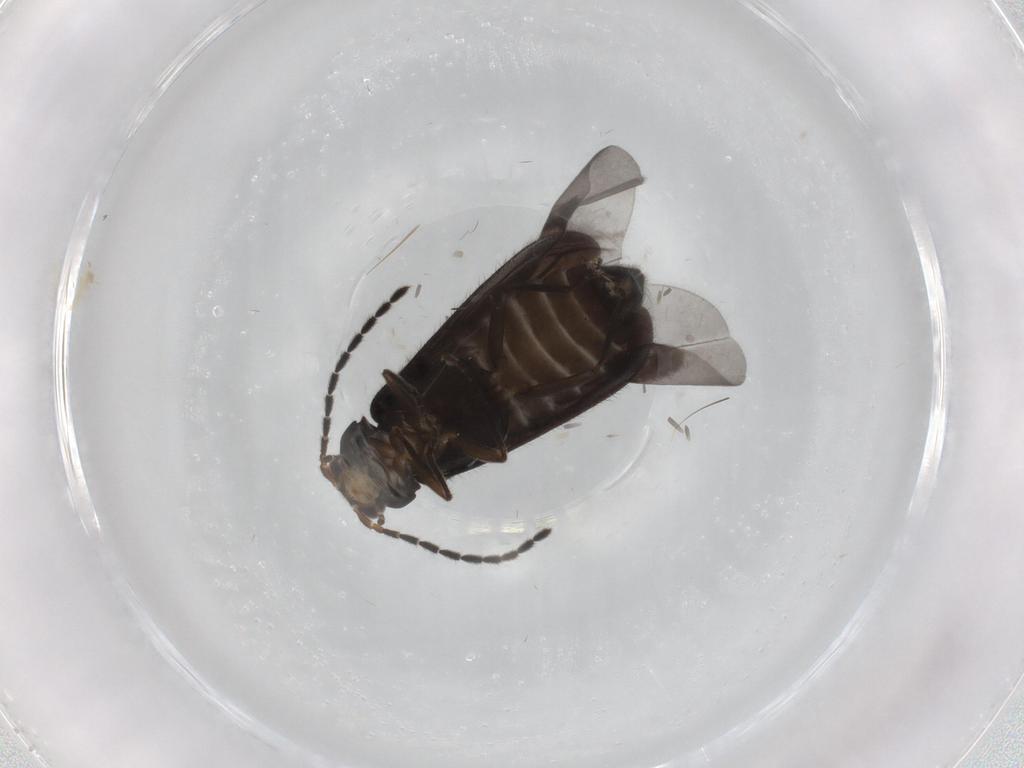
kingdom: Animalia
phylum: Arthropoda
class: Insecta
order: Coleoptera
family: Cantharidae
